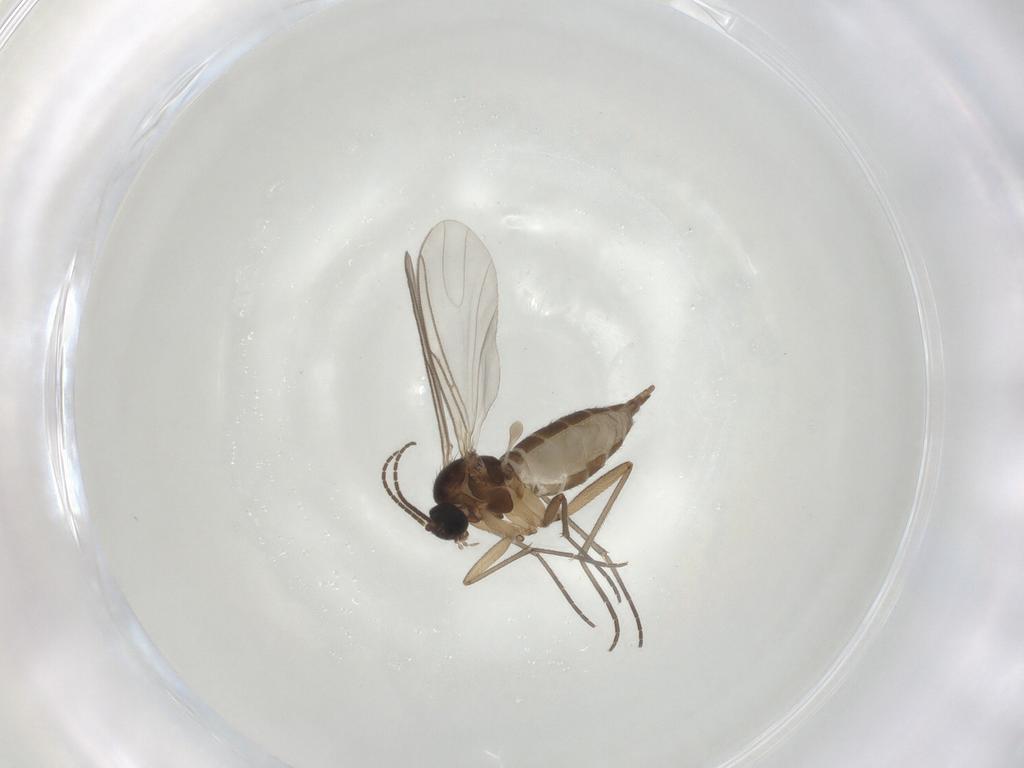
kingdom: Animalia
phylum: Arthropoda
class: Insecta
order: Diptera
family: Sciaridae
